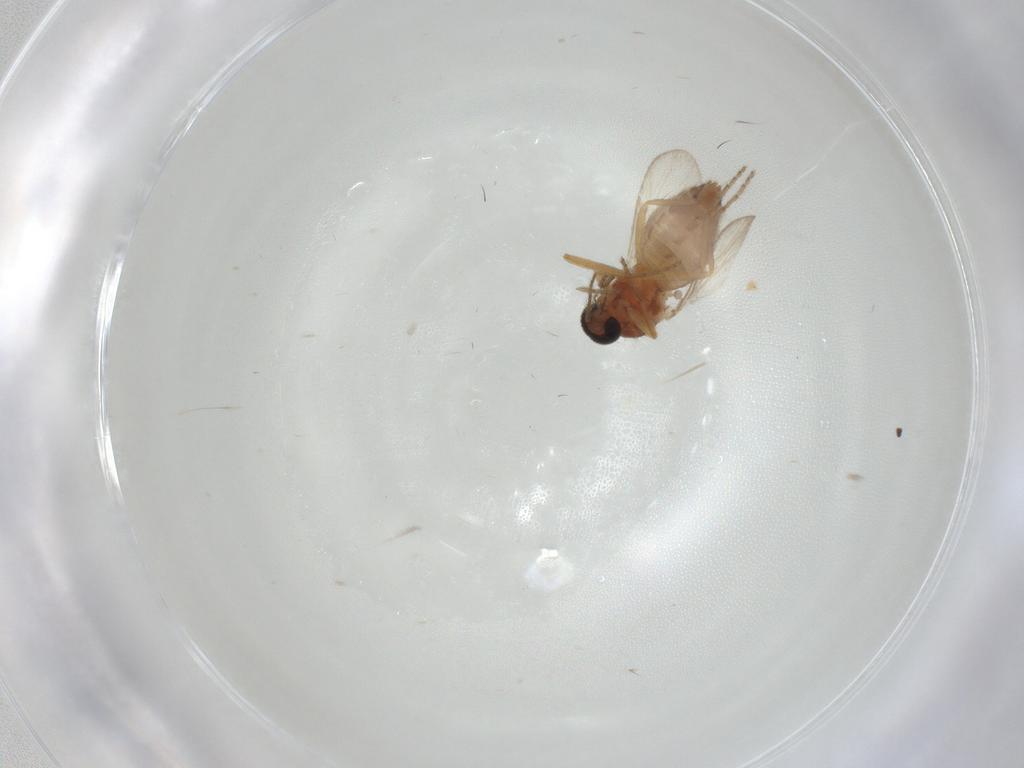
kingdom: Animalia
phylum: Arthropoda
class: Insecta
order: Diptera
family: Ceratopogonidae
